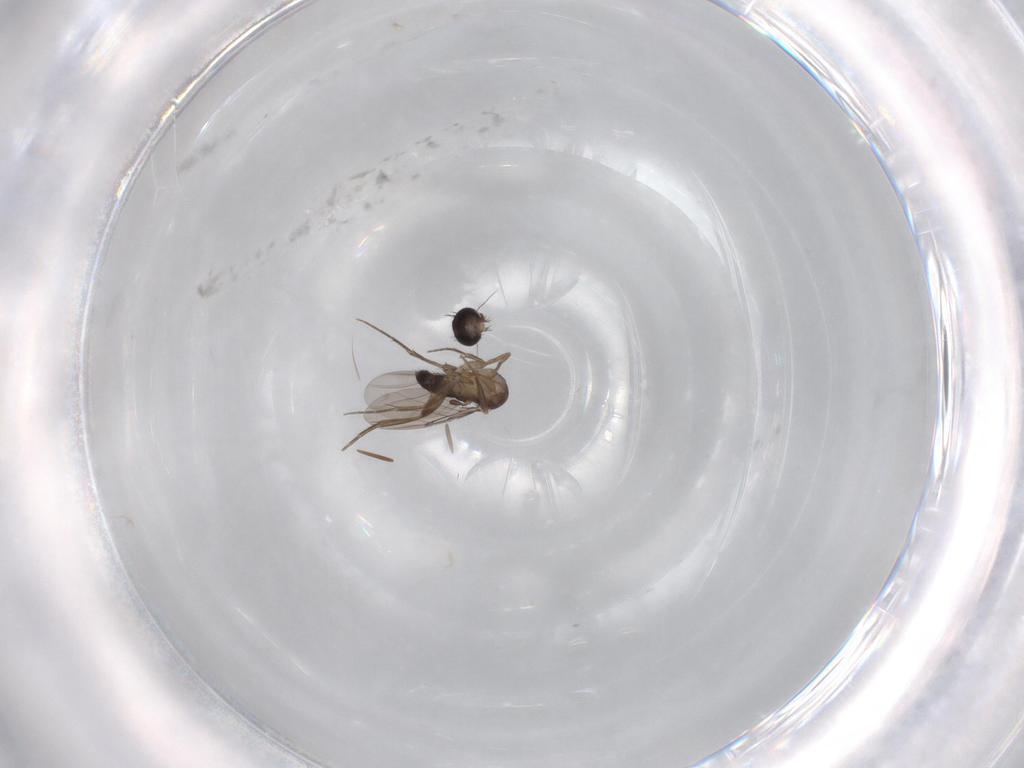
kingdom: Animalia
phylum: Arthropoda
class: Insecta
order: Diptera
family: Phoridae
